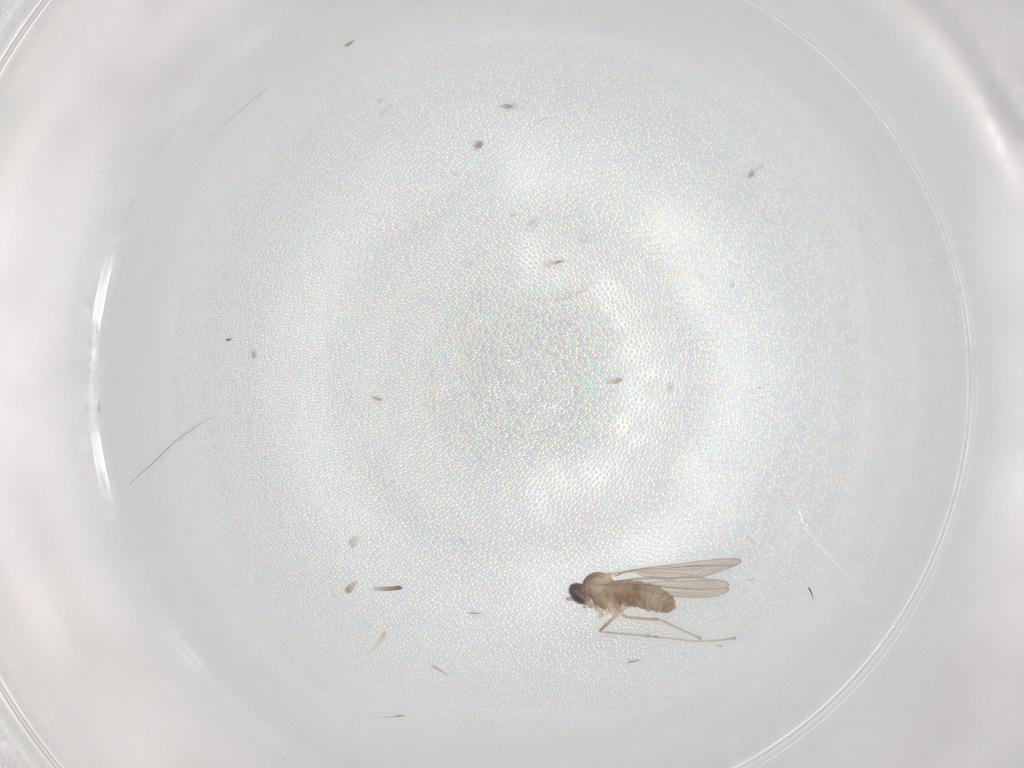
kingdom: Animalia
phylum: Arthropoda
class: Insecta
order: Diptera
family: Cecidomyiidae
